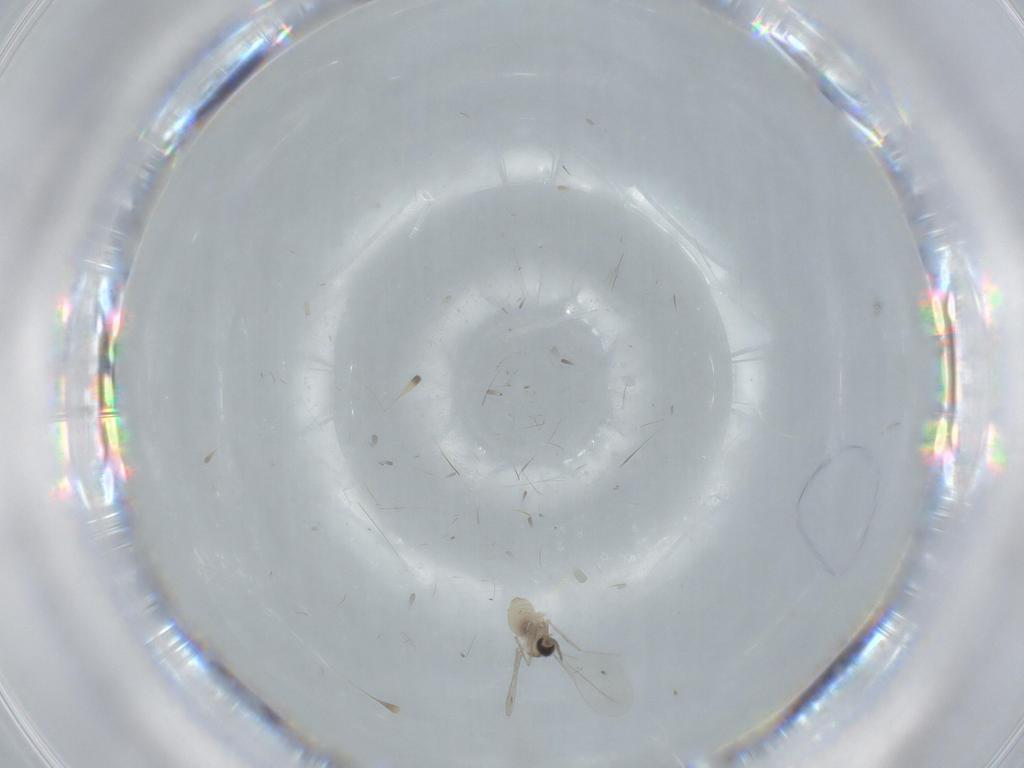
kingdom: Animalia
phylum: Arthropoda
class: Insecta
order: Diptera
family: Cecidomyiidae
